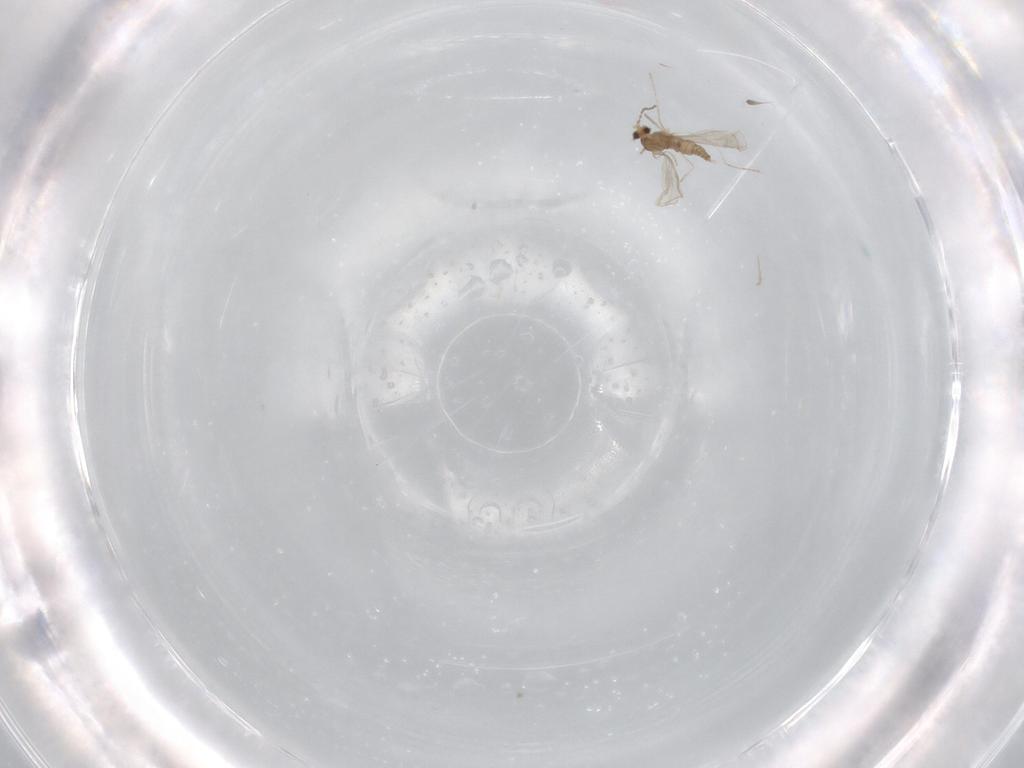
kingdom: Animalia
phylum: Arthropoda
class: Insecta
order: Diptera
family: Cecidomyiidae
